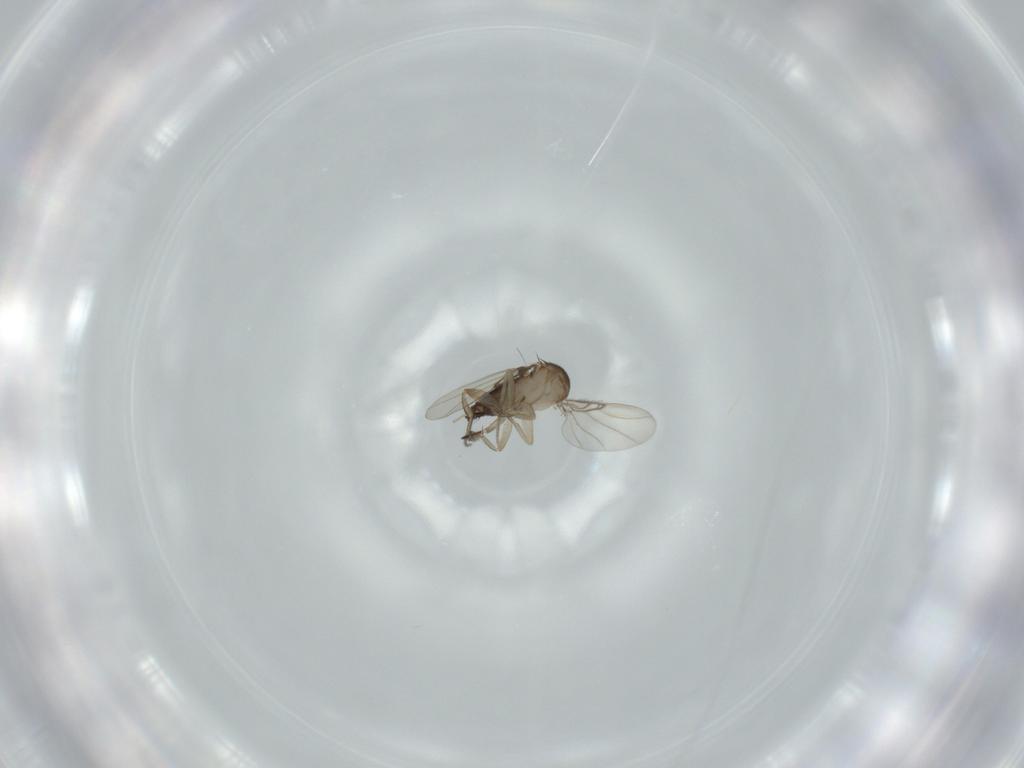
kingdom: Animalia
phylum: Arthropoda
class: Insecta
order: Diptera
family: Phoridae
